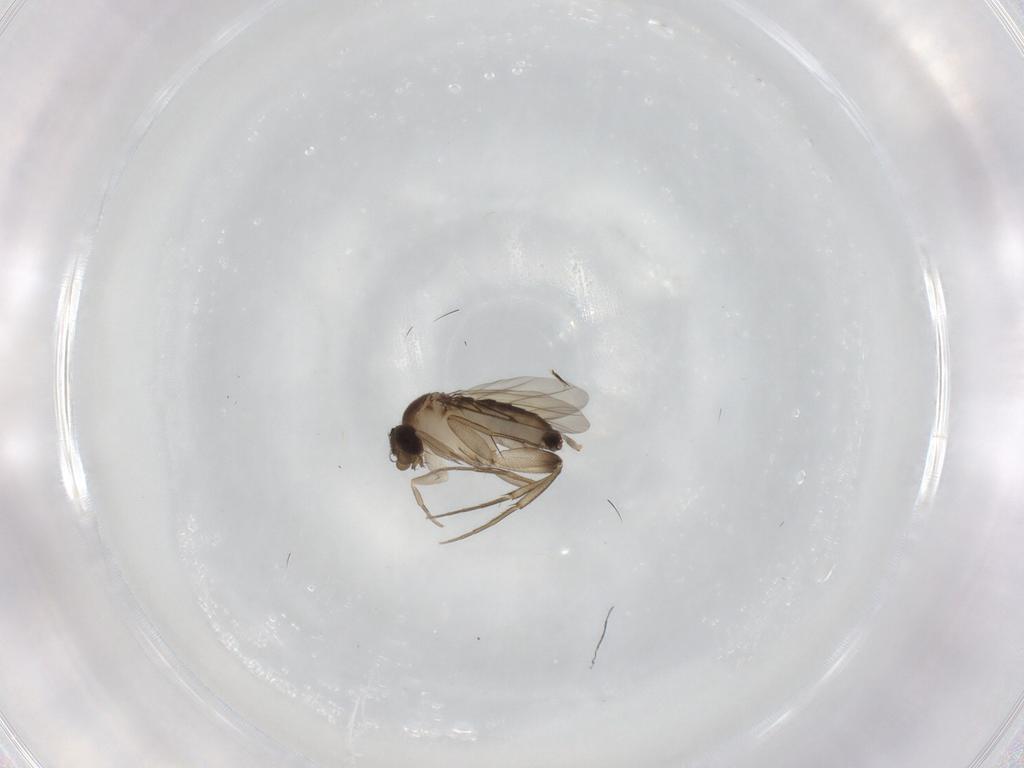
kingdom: Animalia
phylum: Arthropoda
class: Insecta
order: Diptera
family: Phoridae
